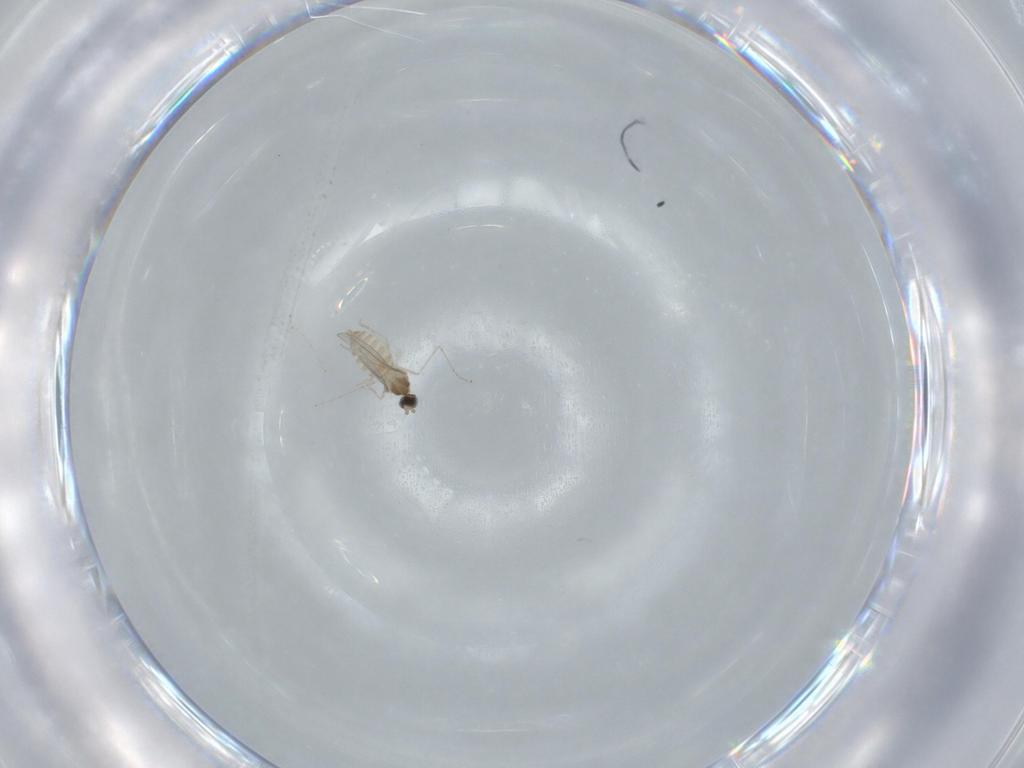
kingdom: Animalia
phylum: Arthropoda
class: Insecta
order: Diptera
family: Cecidomyiidae
